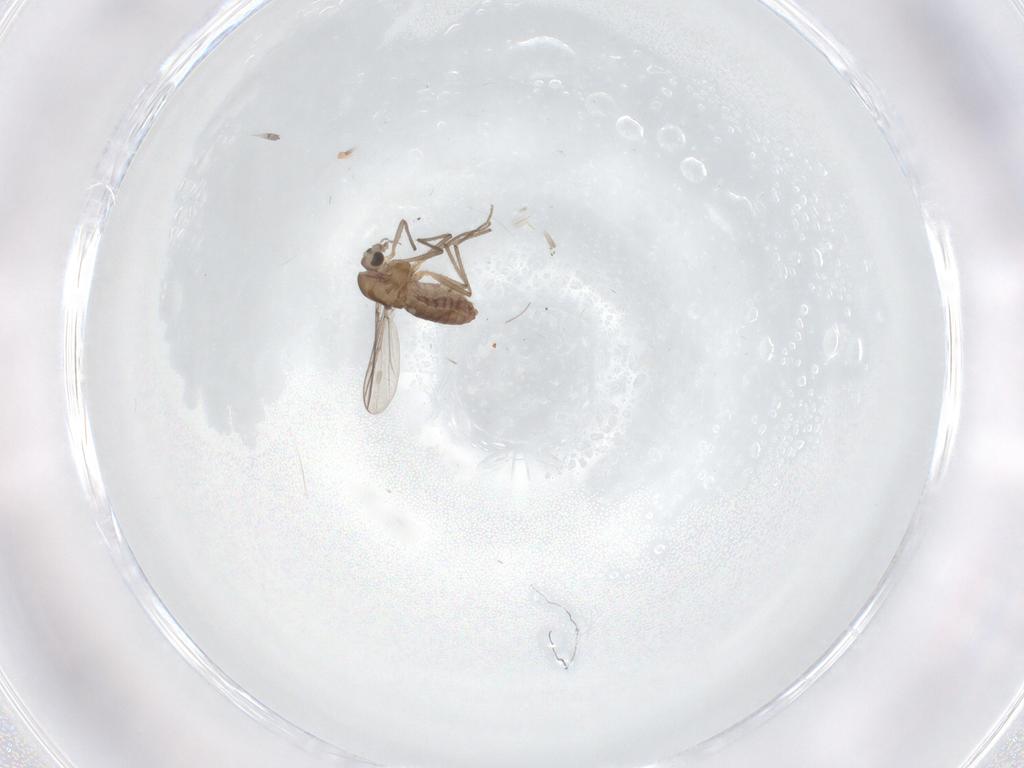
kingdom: Animalia
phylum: Arthropoda
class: Insecta
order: Diptera
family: Chironomidae
